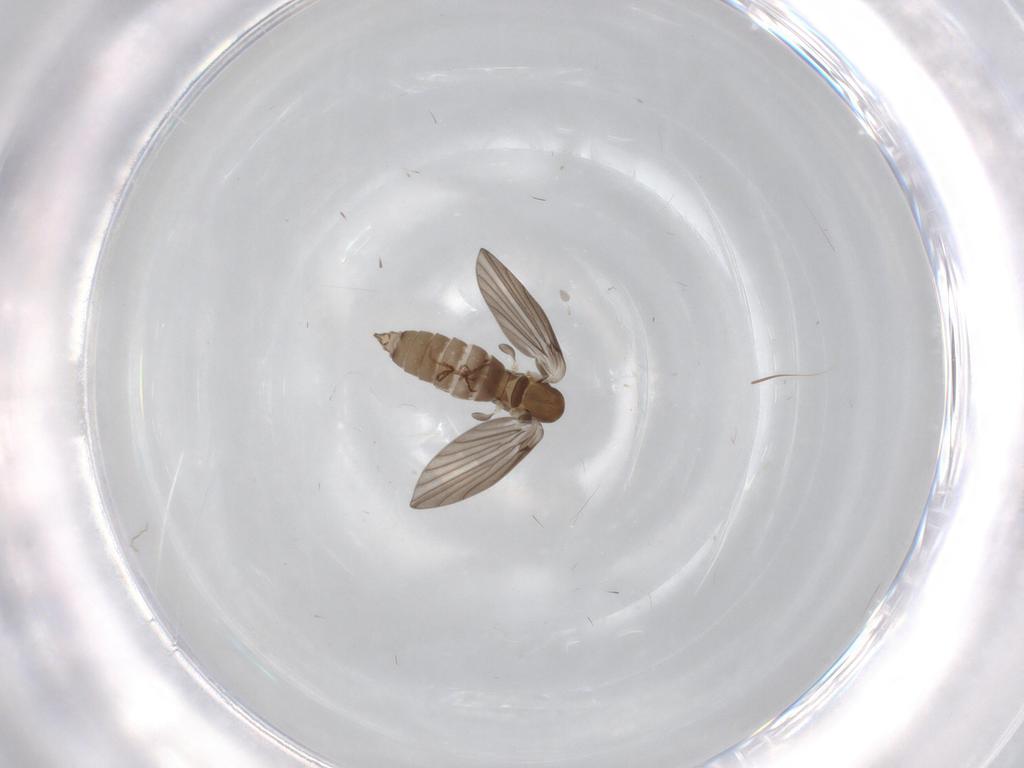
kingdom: Animalia
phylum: Arthropoda
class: Insecta
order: Diptera
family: Psychodidae
